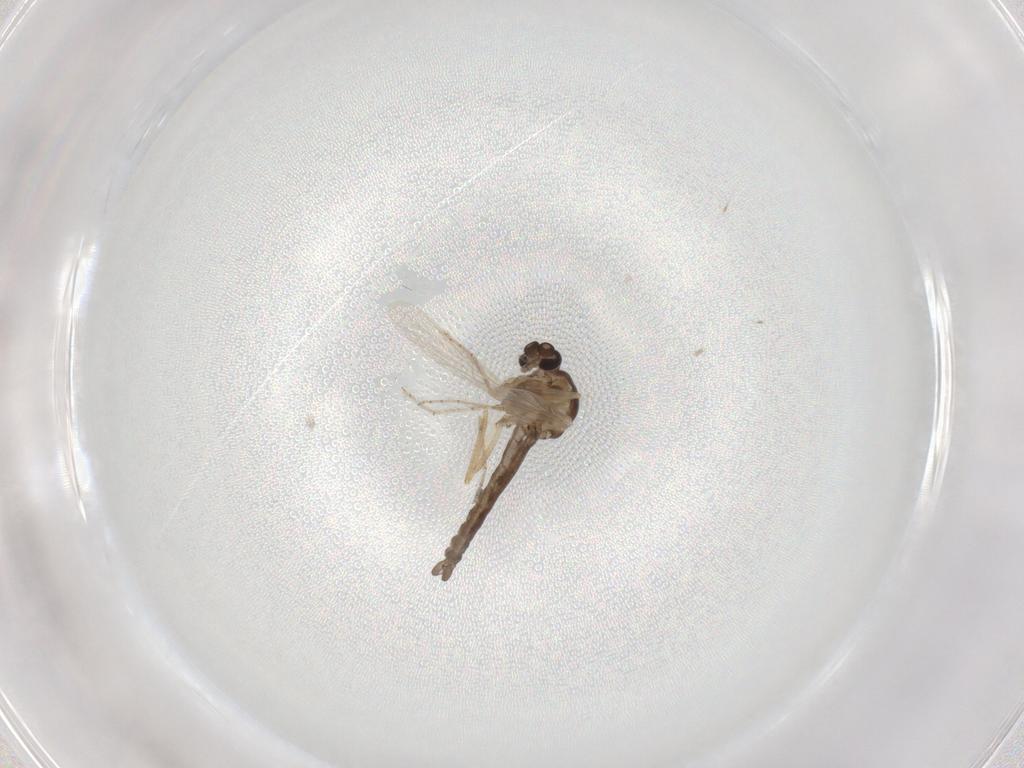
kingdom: Animalia
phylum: Arthropoda
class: Insecta
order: Diptera
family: Ceratopogonidae
